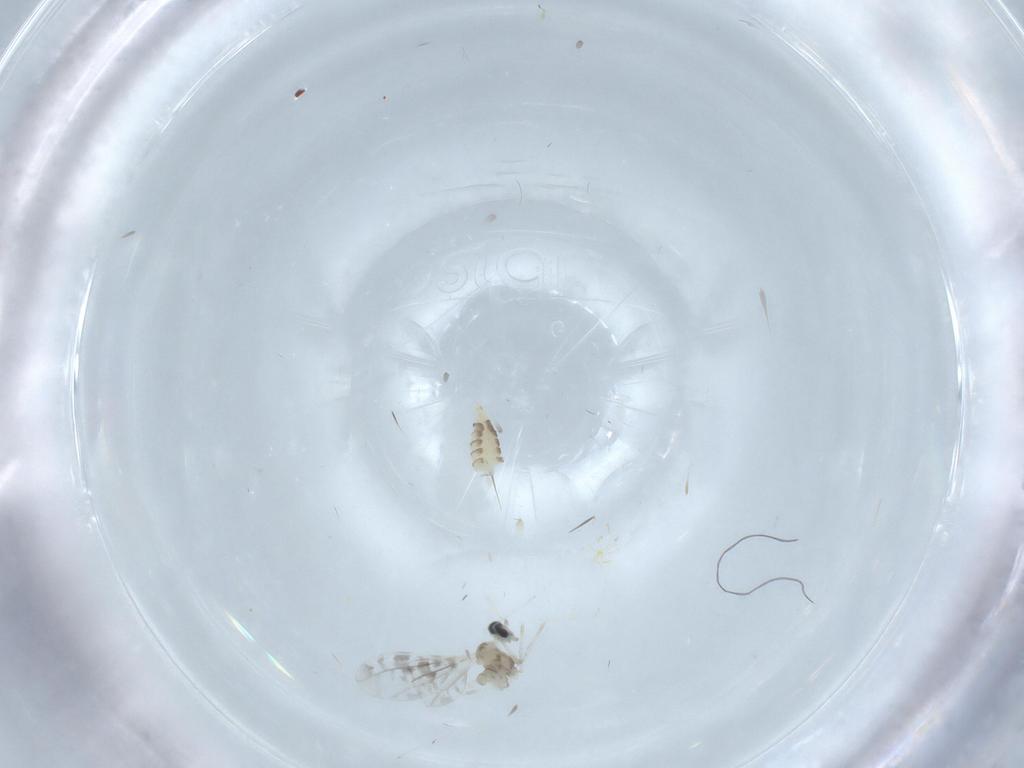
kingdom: Animalia
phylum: Arthropoda
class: Insecta
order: Diptera
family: Cecidomyiidae
